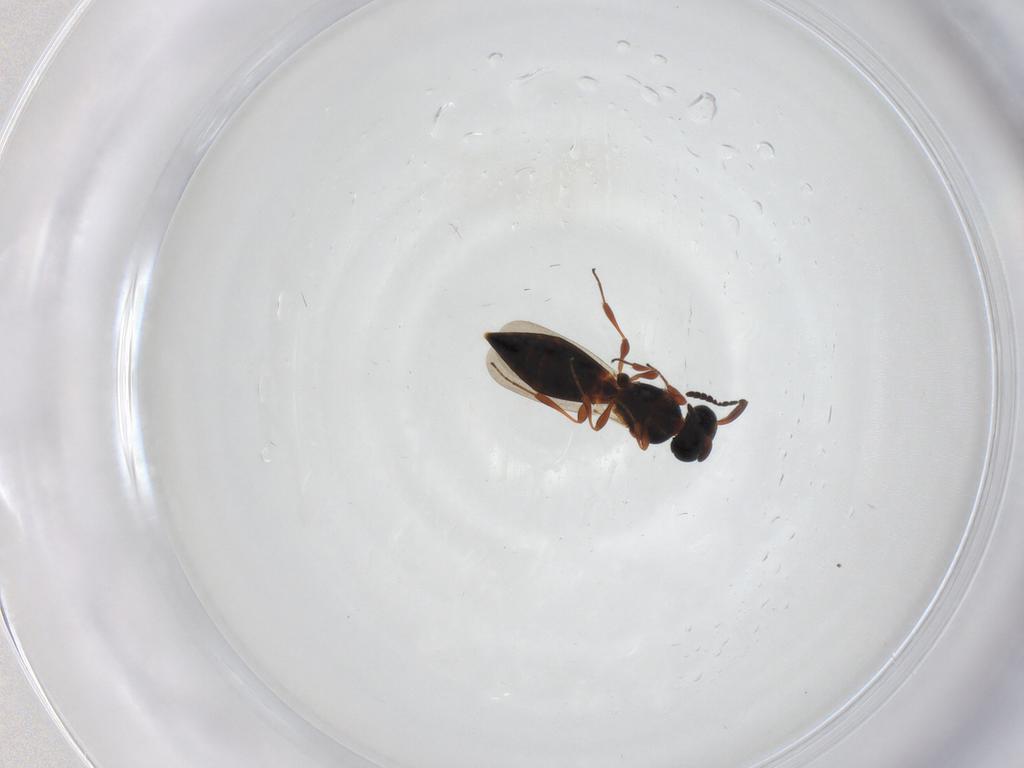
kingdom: Animalia
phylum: Arthropoda
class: Insecta
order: Hymenoptera
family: Platygastridae
